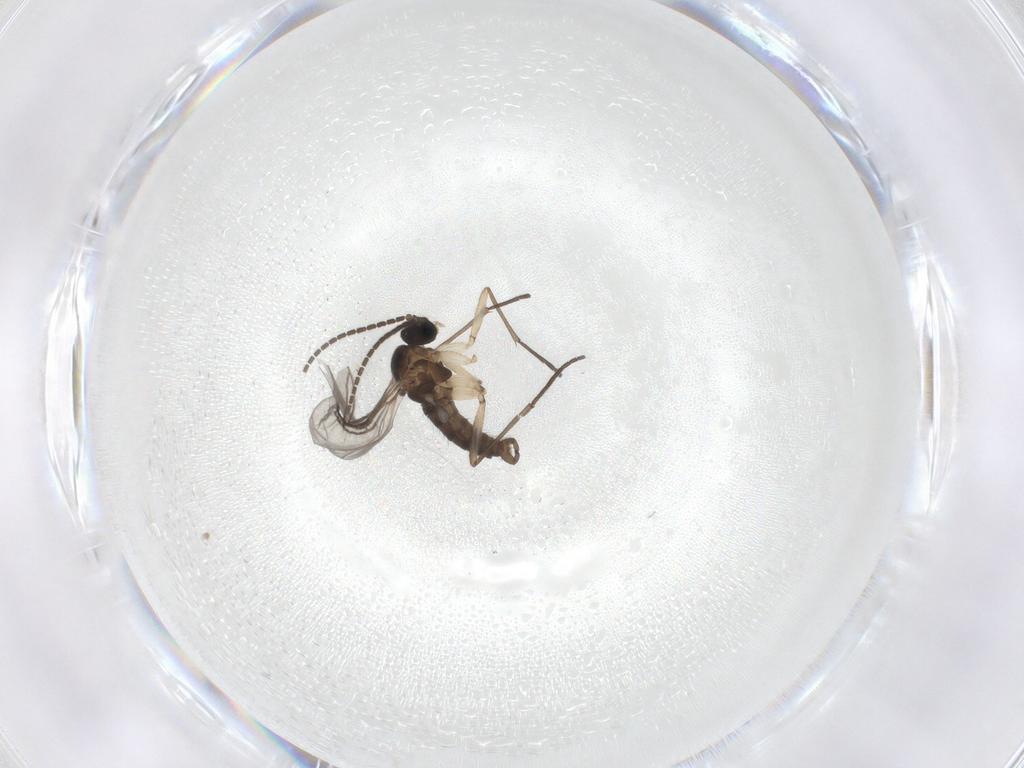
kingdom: Animalia
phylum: Arthropoda
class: Insecta
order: Diptera
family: Sciaridae
